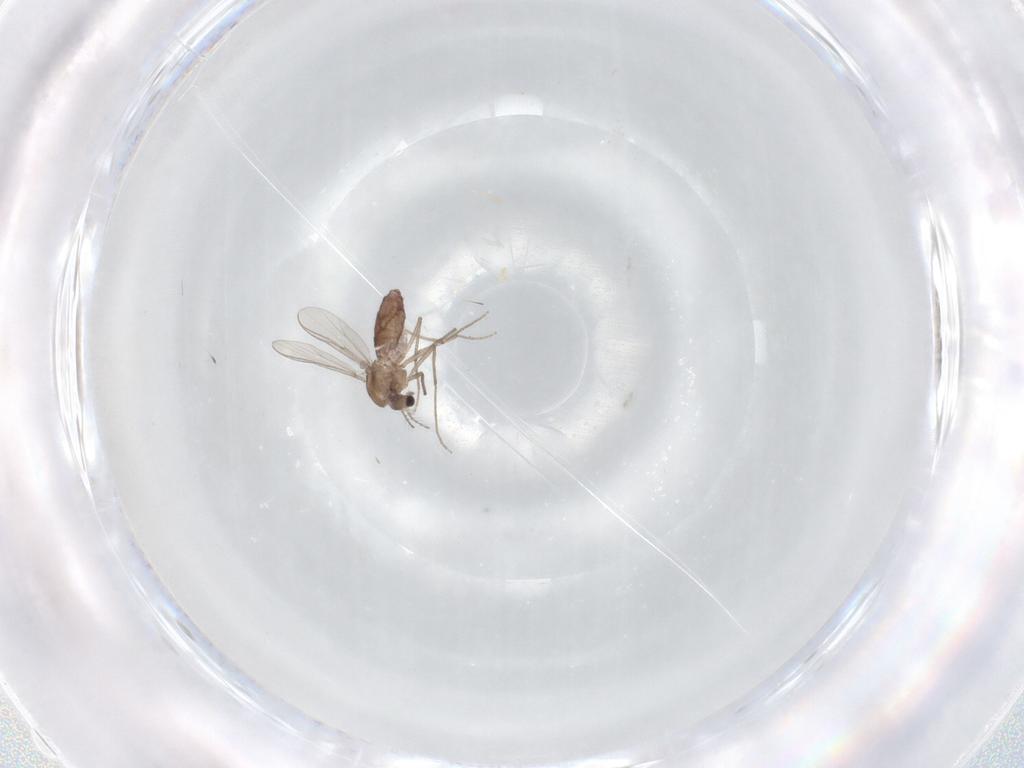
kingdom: Animalia
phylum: Arthropoda
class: Insecta
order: Diptera
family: Chironomidae
